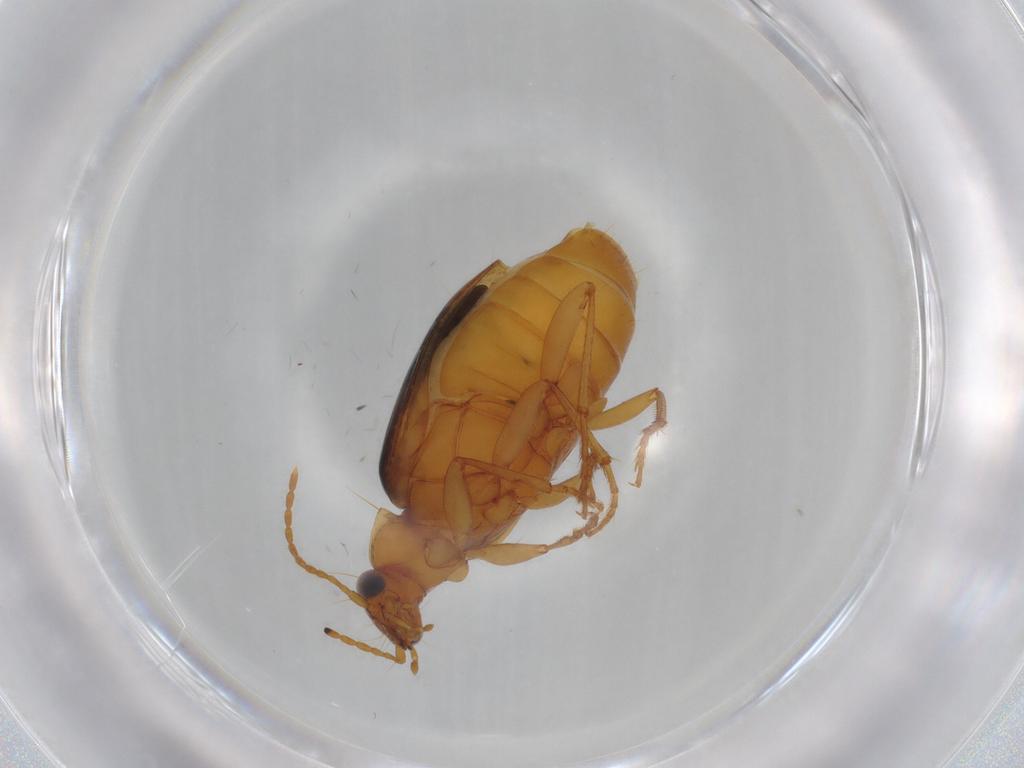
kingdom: Animalia
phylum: Arthropoda
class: Insecta
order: Coleoptera
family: Carabidae
